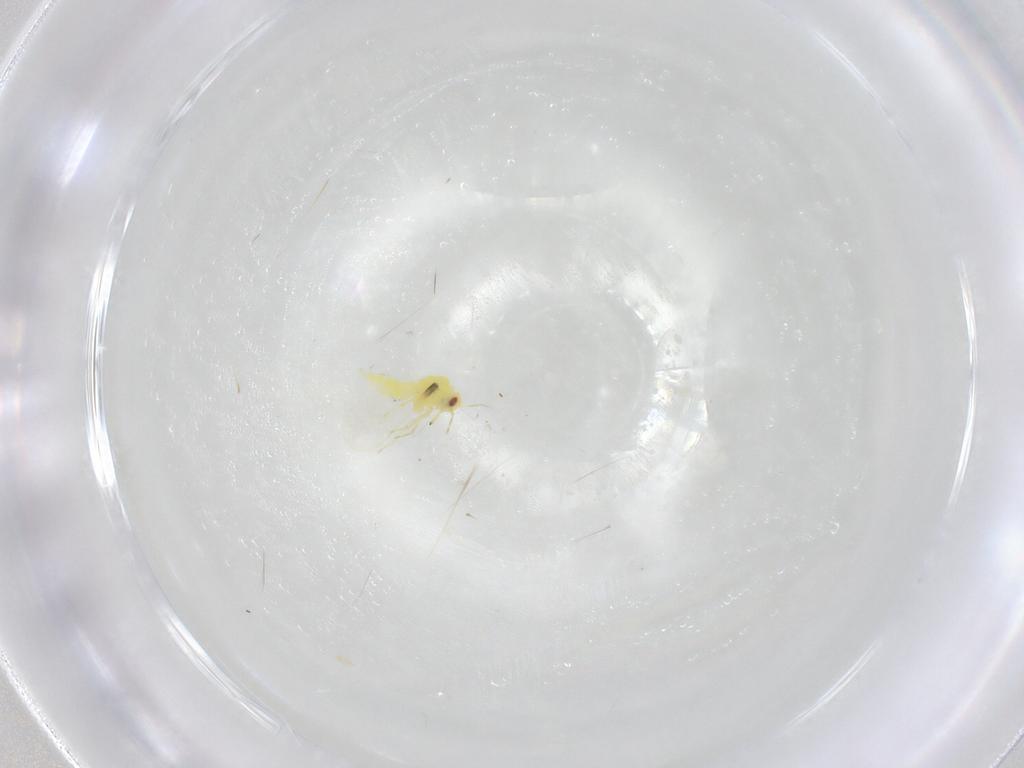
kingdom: Animalia
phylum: Arthropoda
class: Insecta
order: Hemiptera
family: Aleyrodidae
